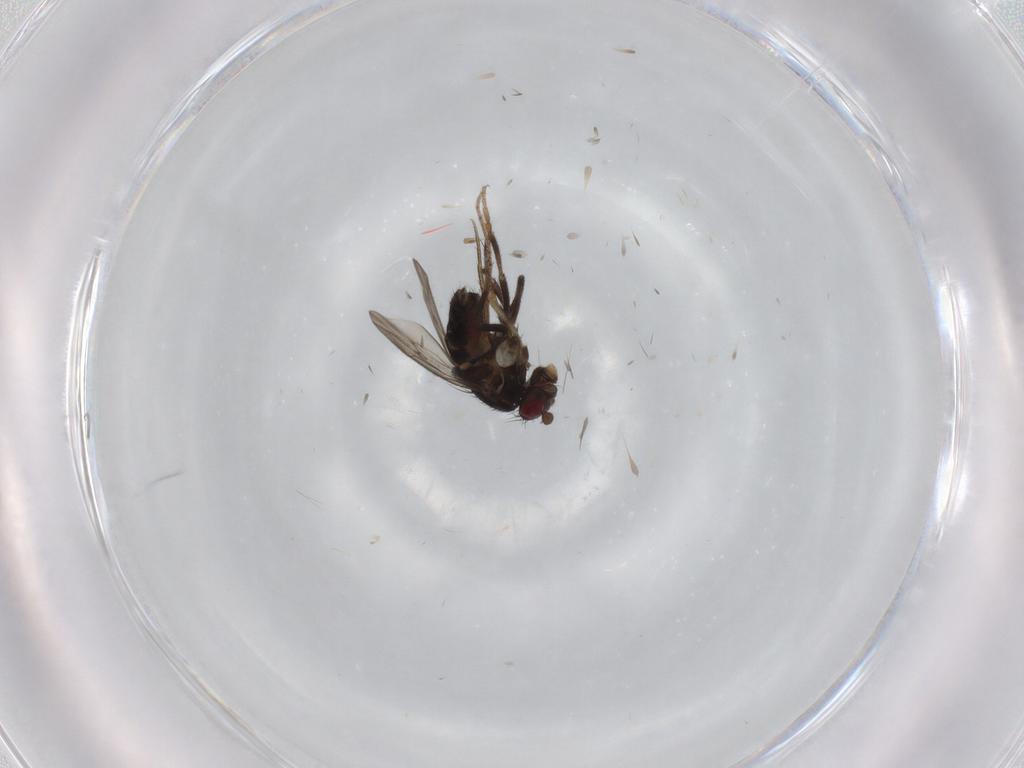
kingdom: Animalia
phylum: Arthropoda
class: Insecta
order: Diptera
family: Sphaeroceridae
